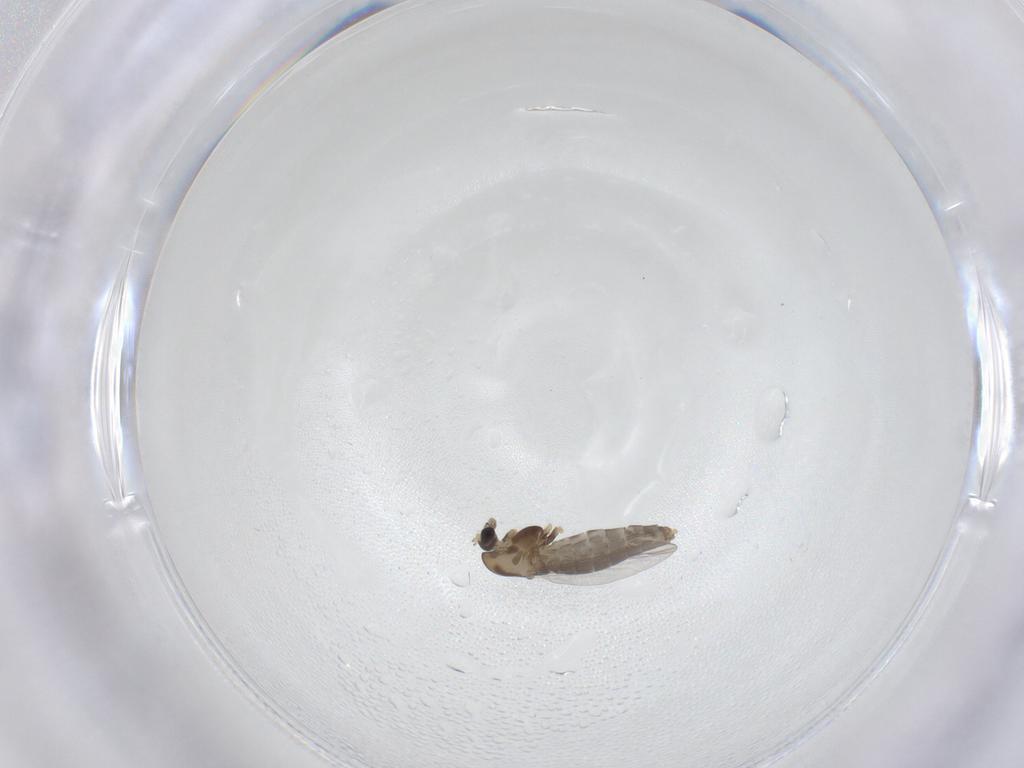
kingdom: Animalia
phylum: Arthropoda
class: Insecta
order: Diptera
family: Chironomidae
